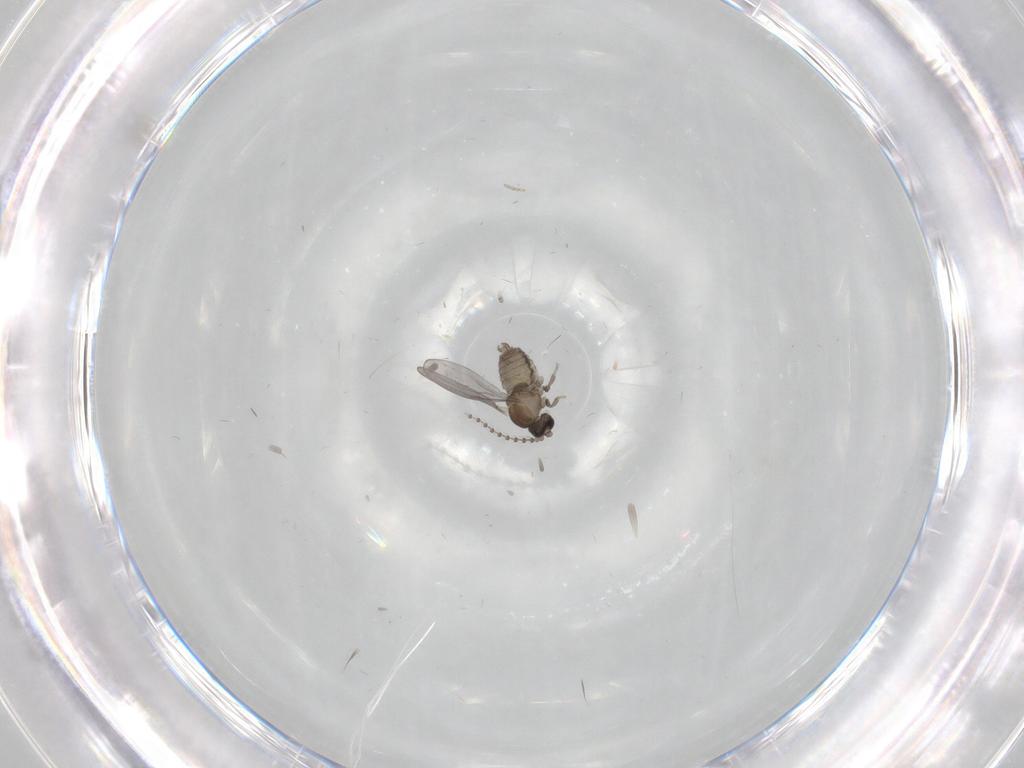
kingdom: Animalia
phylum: Arthropoda
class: Insecta
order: Diptera
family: Cecidomyiidae
